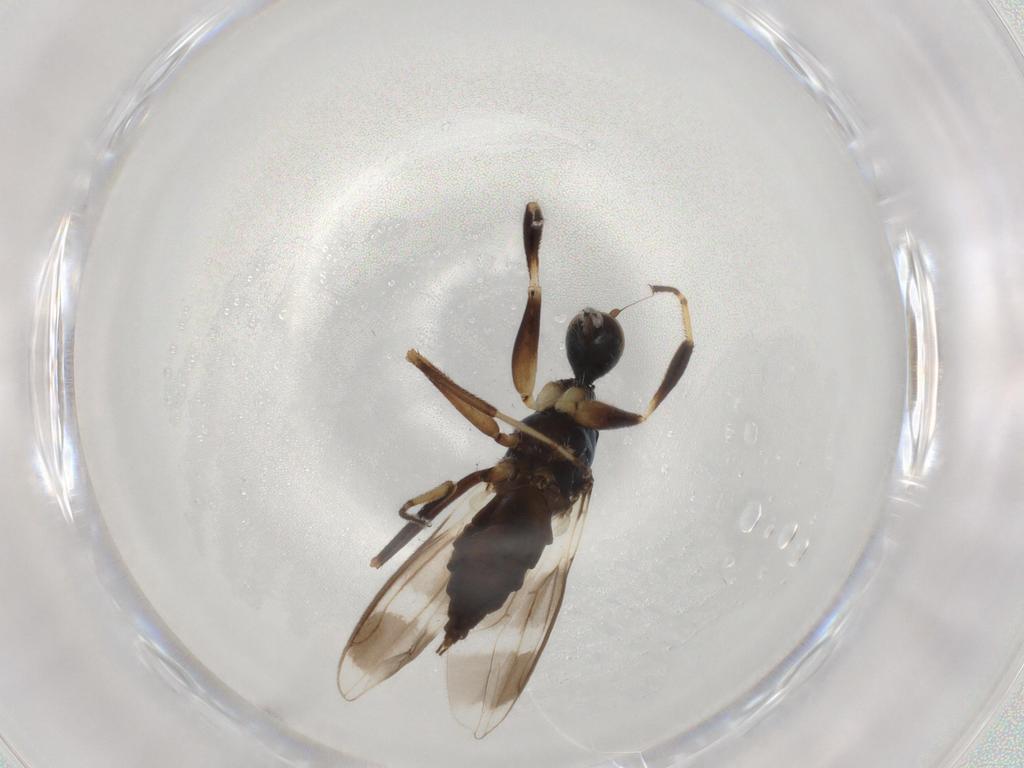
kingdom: Animalia
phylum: Arthropoda
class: Insecta
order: Diptera
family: Hybotidae
